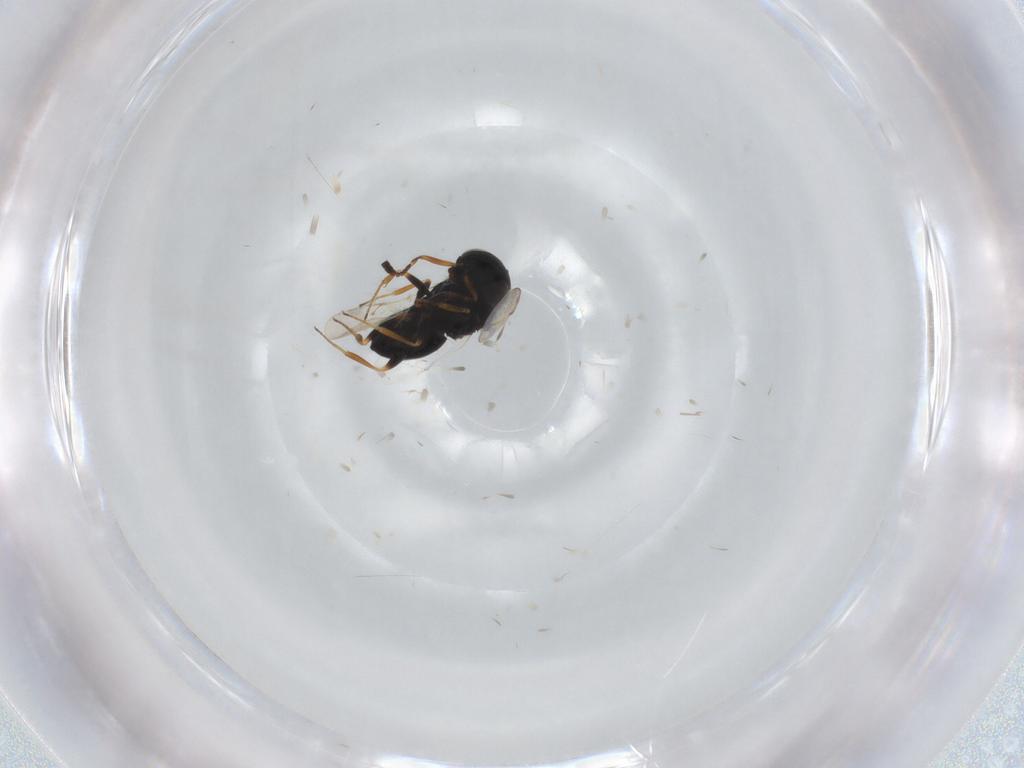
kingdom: Animalia
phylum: Arthropoda
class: Insecta
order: Coleoptera
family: Curculionidae
